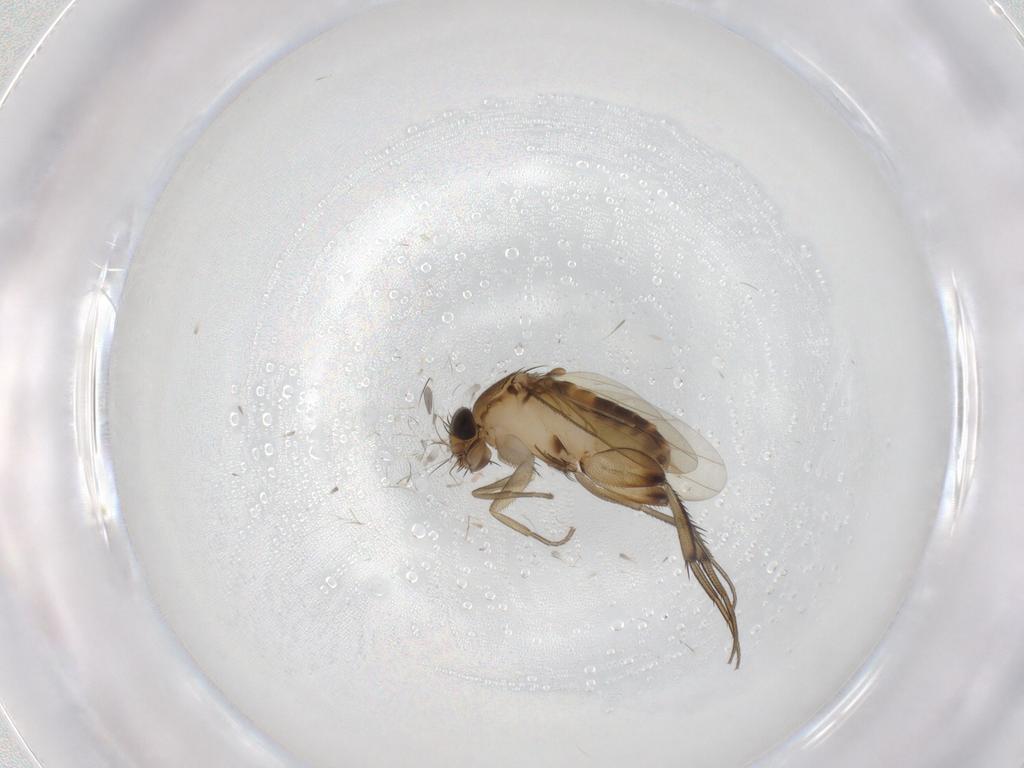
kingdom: Animalia
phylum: Arthropoda
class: Insecta
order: Diptera
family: Phoridae
